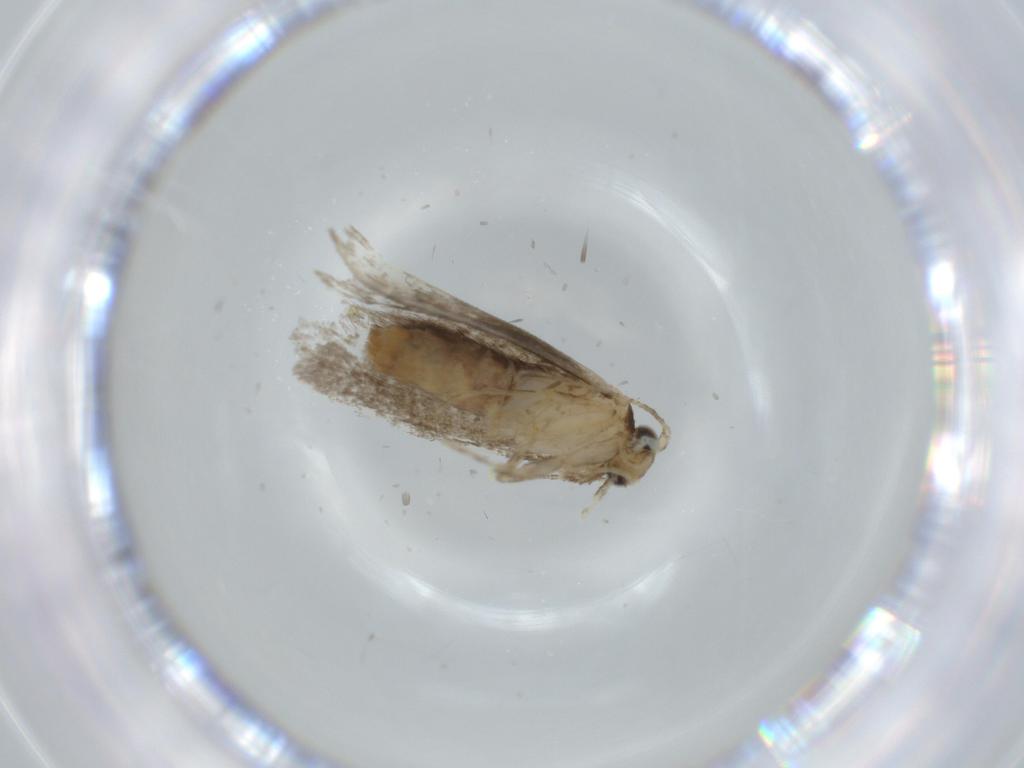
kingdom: Animalia
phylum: Arthropoda
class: Insecta
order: Lepidoptera
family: Tineidae
